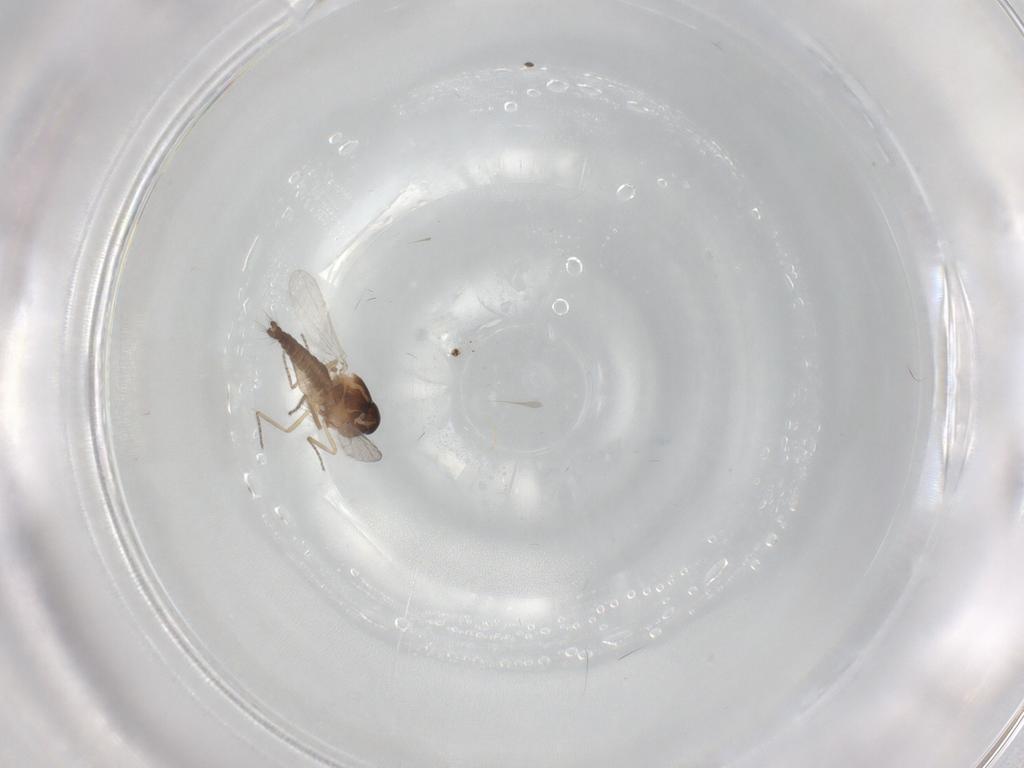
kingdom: Animalia
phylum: Arthropoda
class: Insecta
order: Diptera
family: Ceratopogonidae
